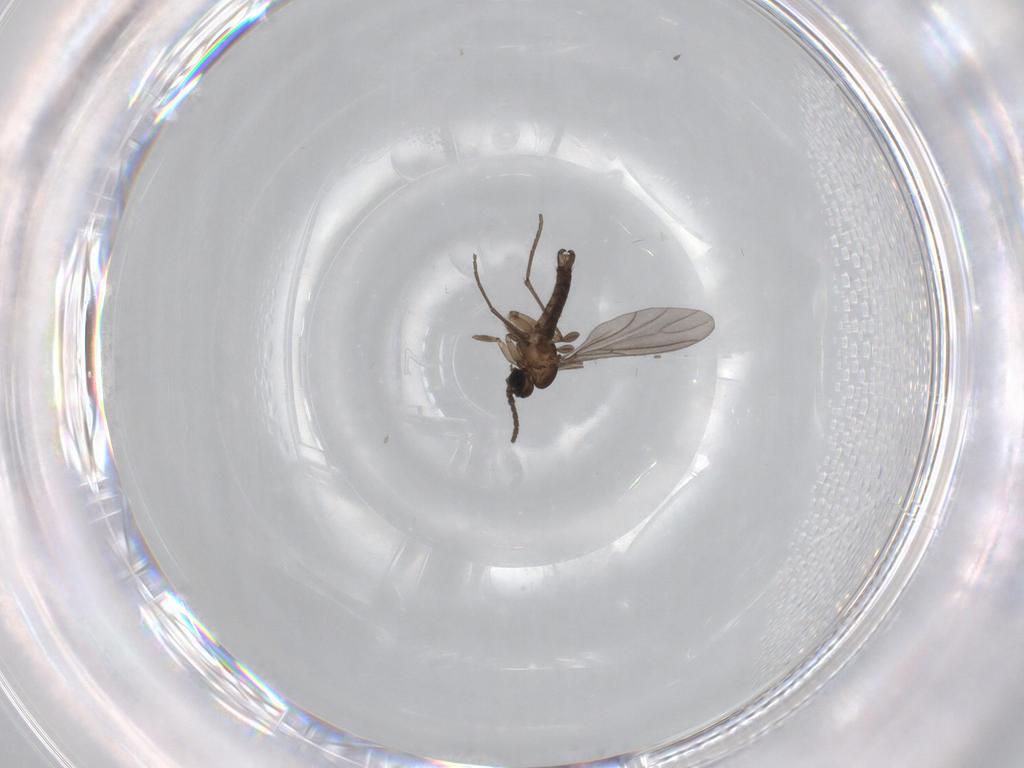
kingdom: Animalia
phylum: Arthropoda
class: Insecta
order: Diptera
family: Sciaridae
